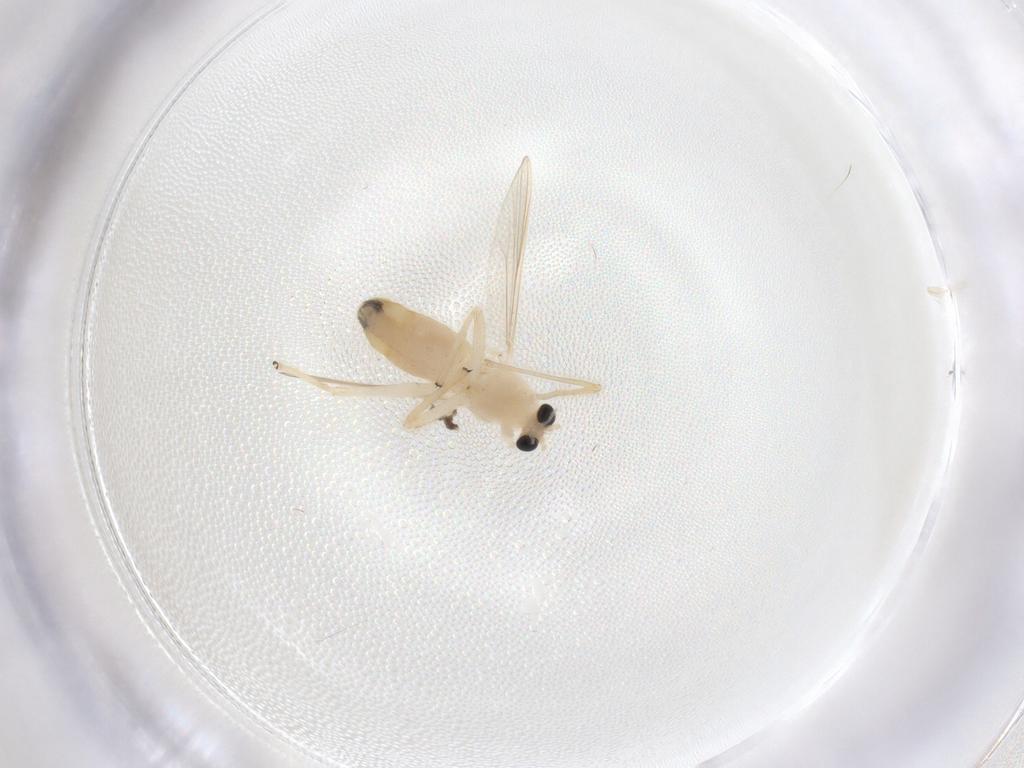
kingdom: Animalia
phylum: Arthropoda
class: Insecta
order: Diptera
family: Chironomidae
